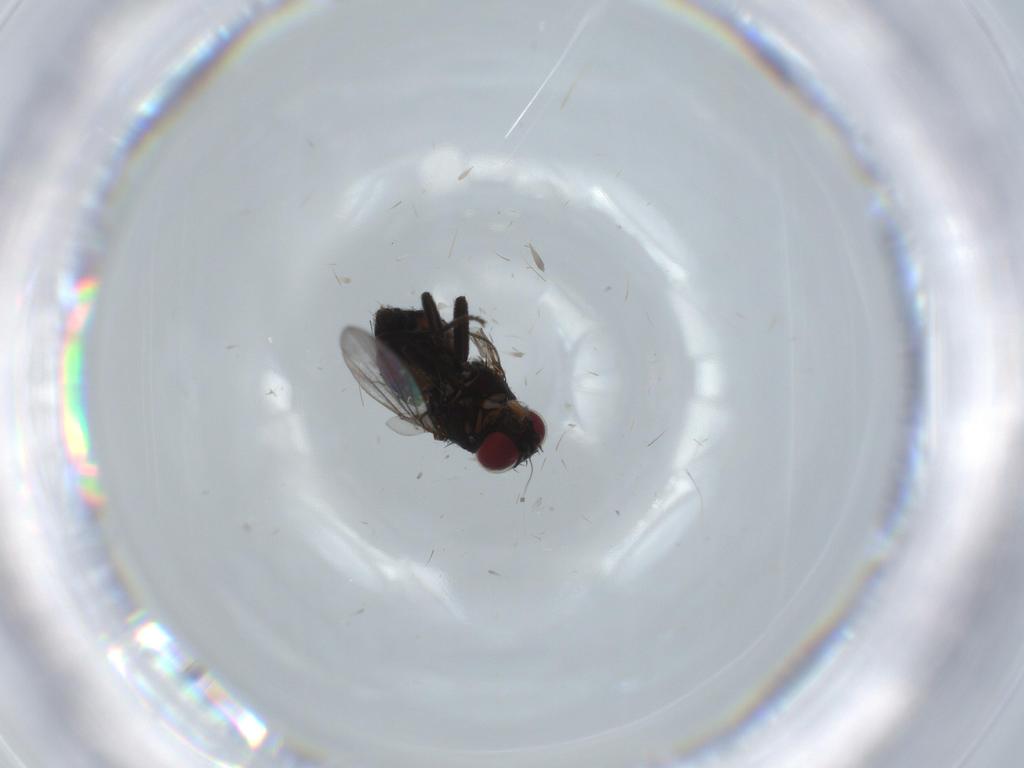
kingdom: Animalia
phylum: Arthropoda
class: Insecta
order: Diptera
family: Agromyzidae
